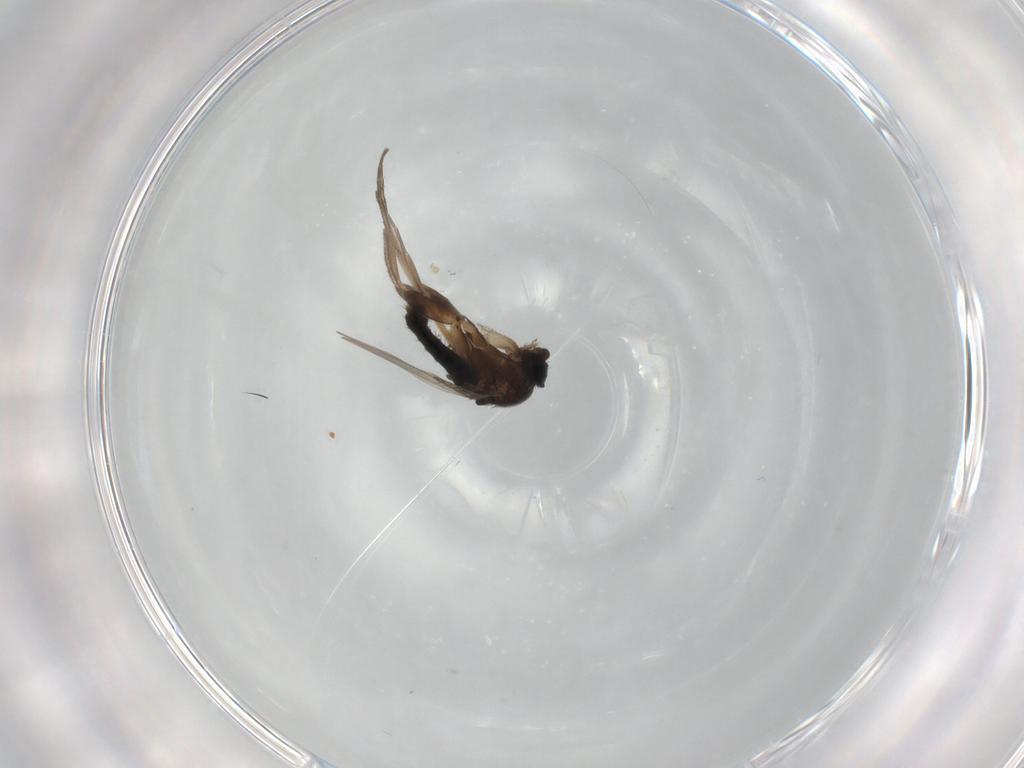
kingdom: Animalia
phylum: Arthropoda
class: Insecta
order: Diptera
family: Phoridae
